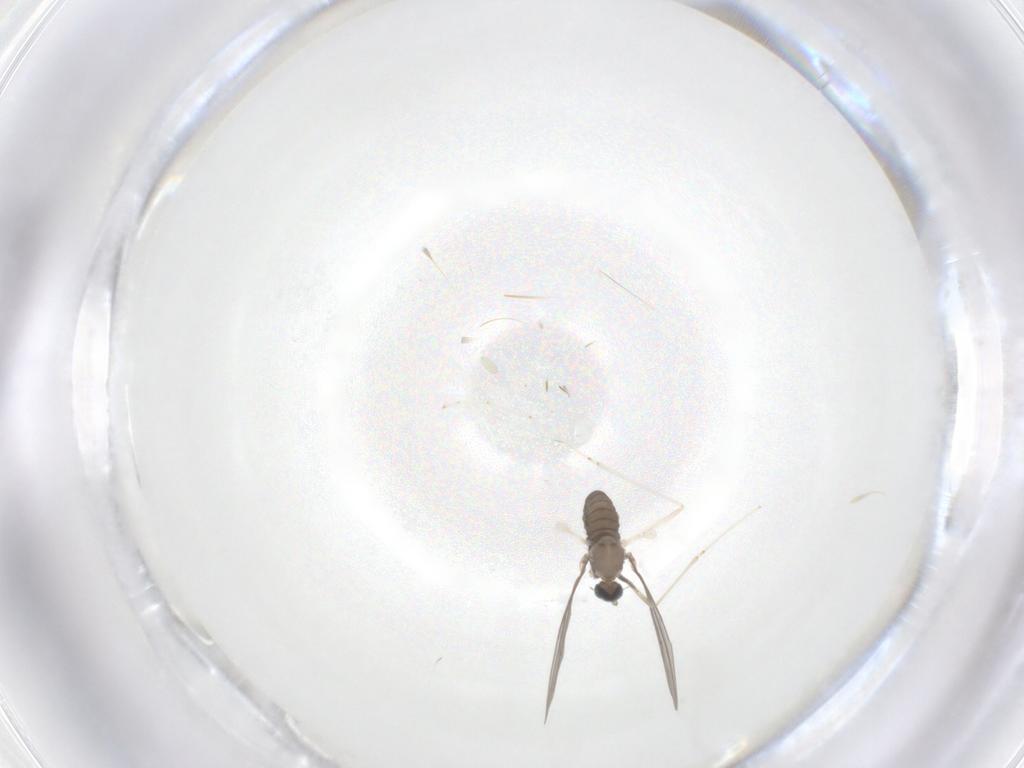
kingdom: Animalia
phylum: Arthropoda
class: Insecta
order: Diptera
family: Cecidomyiidae
